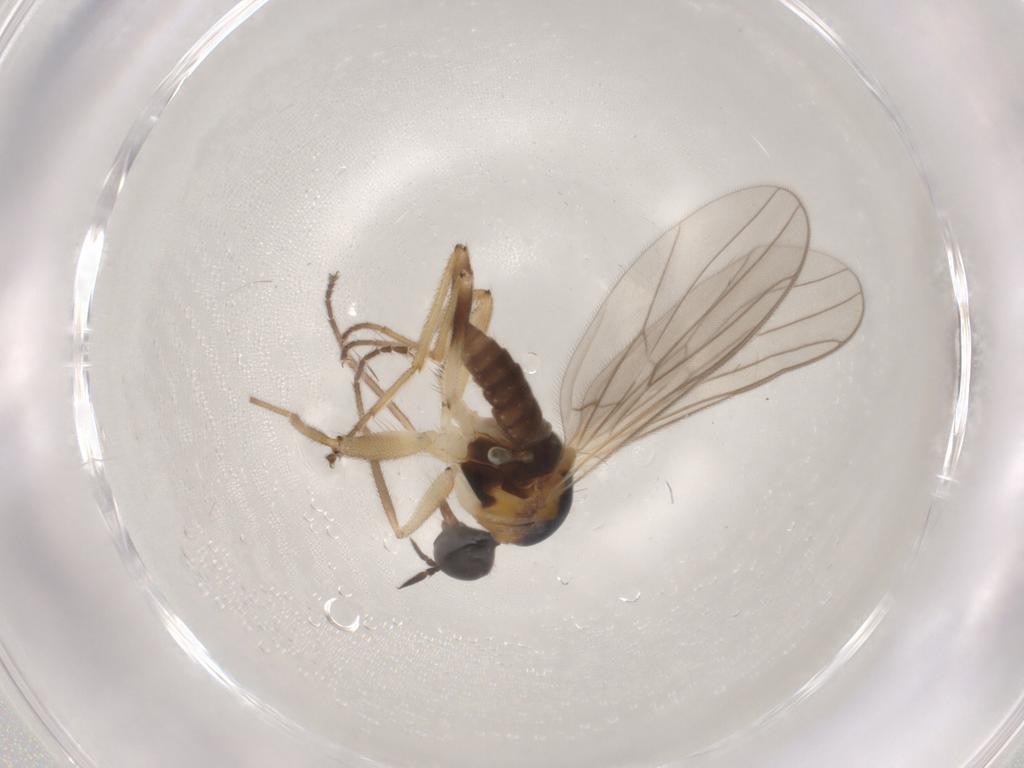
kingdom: Animalia
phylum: Arthropoda
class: Insecta
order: Diptera
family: Hybotidae
